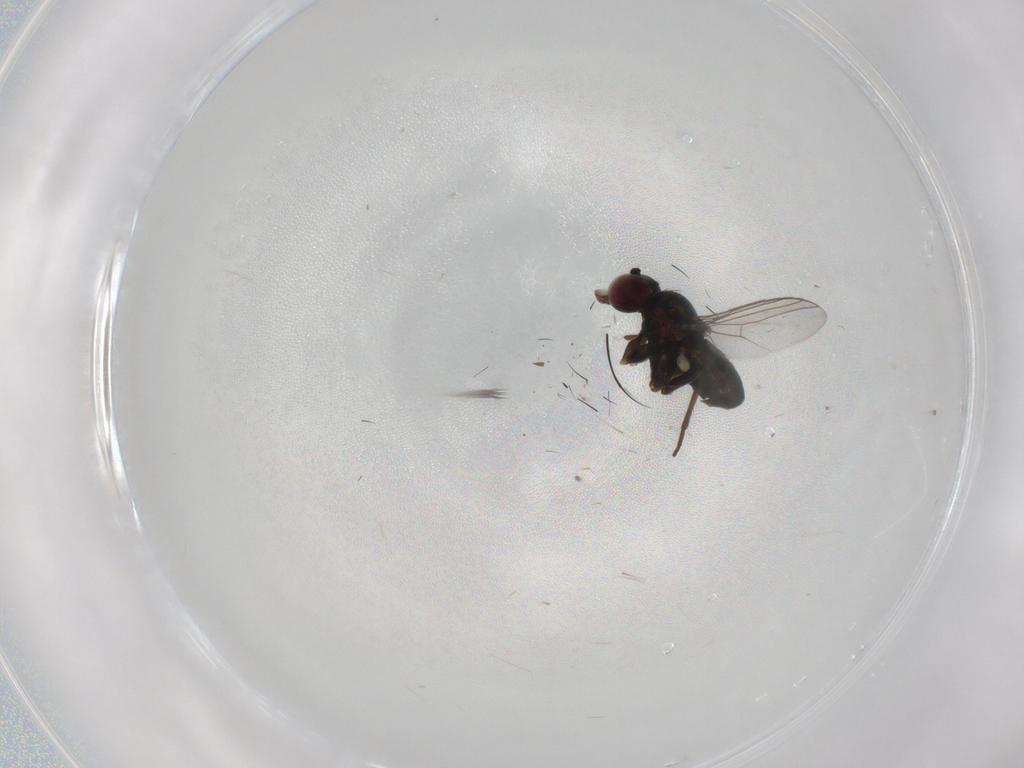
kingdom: Animalia
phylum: Arthropoda
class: Insecta
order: Diptera
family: Dolichopodidae
